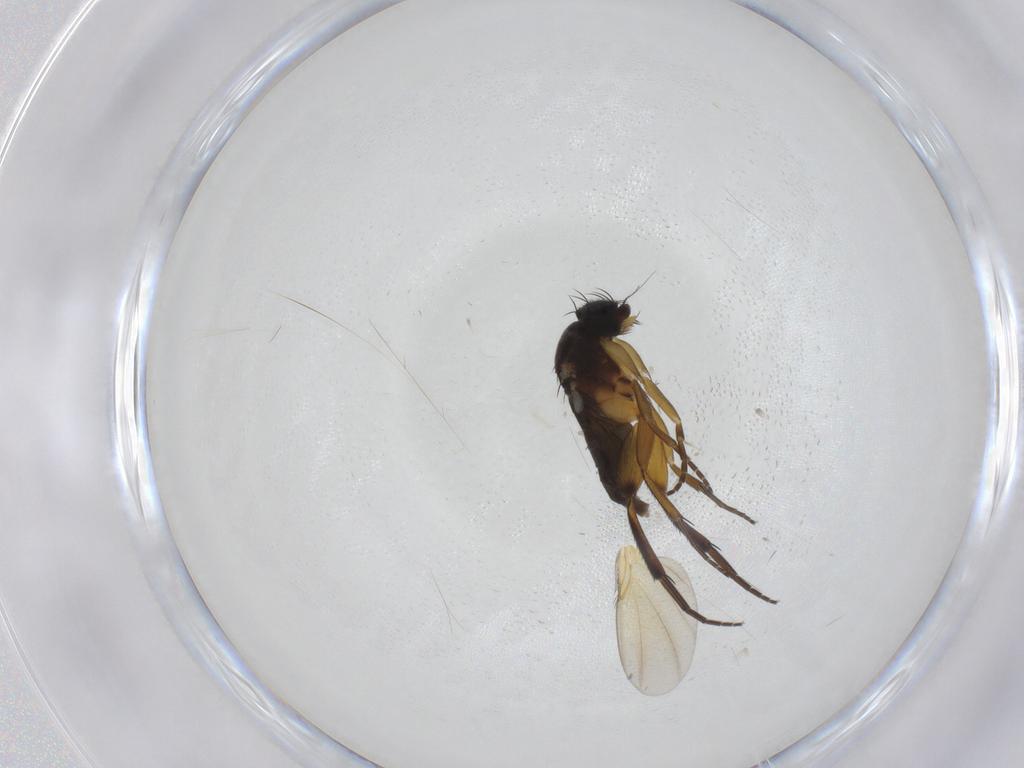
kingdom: Animalia
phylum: Arthropoda
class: Insecta
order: Diptera
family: Phoridae
